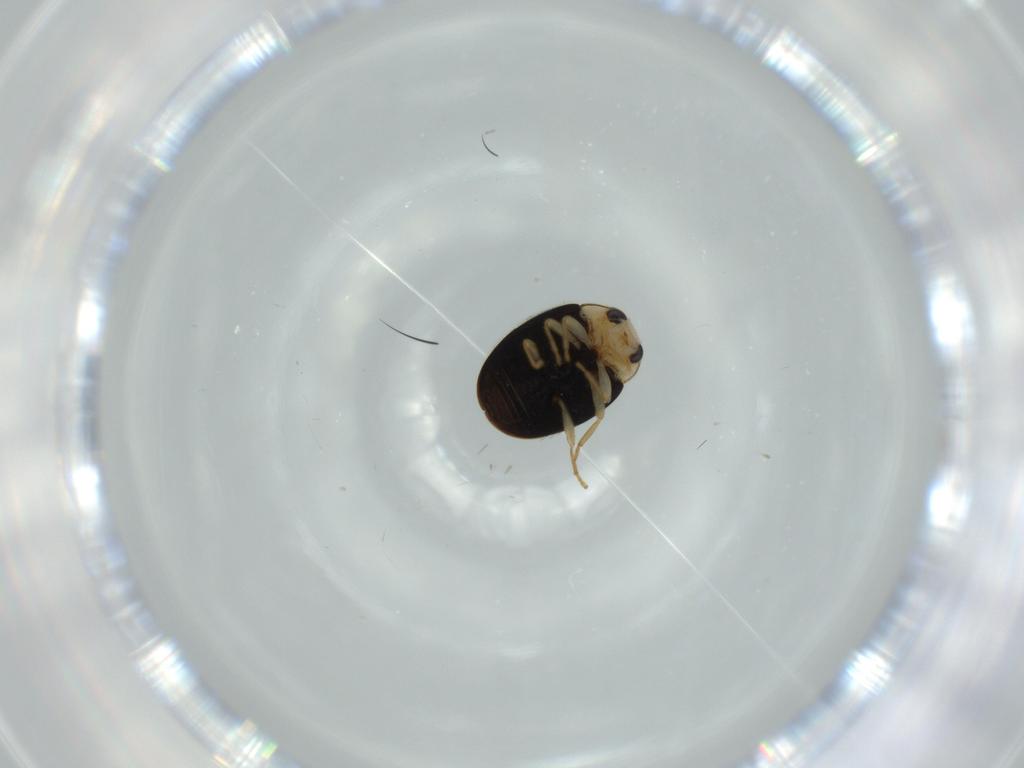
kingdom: Animalia
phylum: Arthropoda
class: Insecta
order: Coleoptera
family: Coccinellidae
